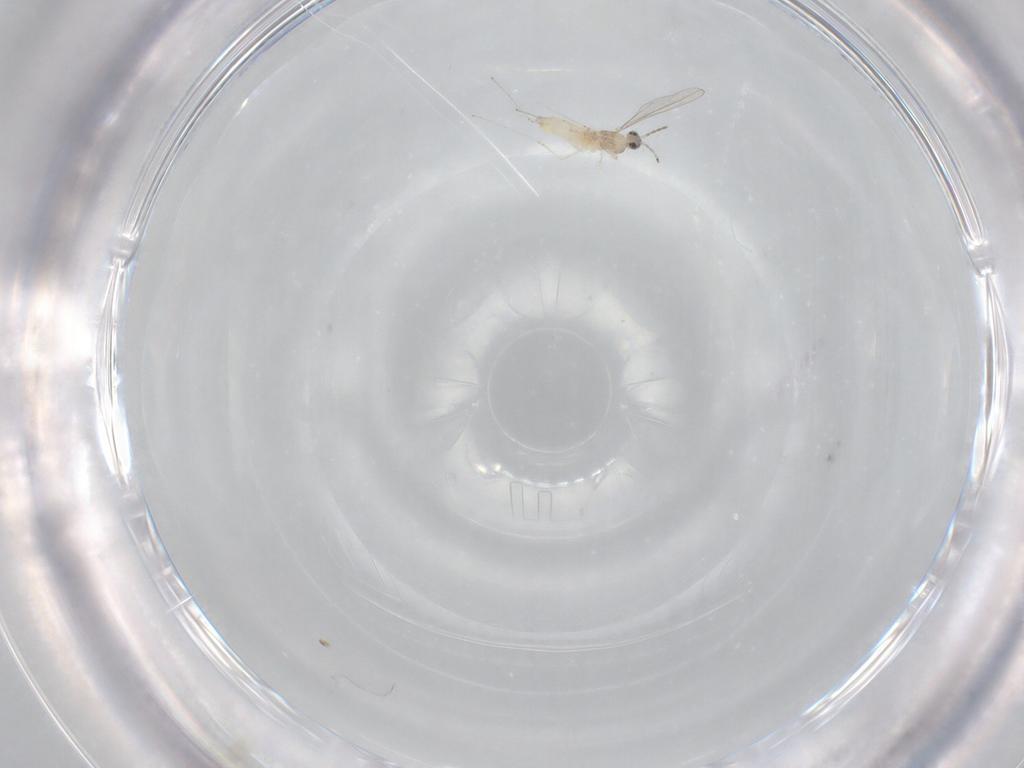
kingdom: Animalia
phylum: Arthropoda
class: Insecta
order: Diptera
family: Cecidomyiidae
